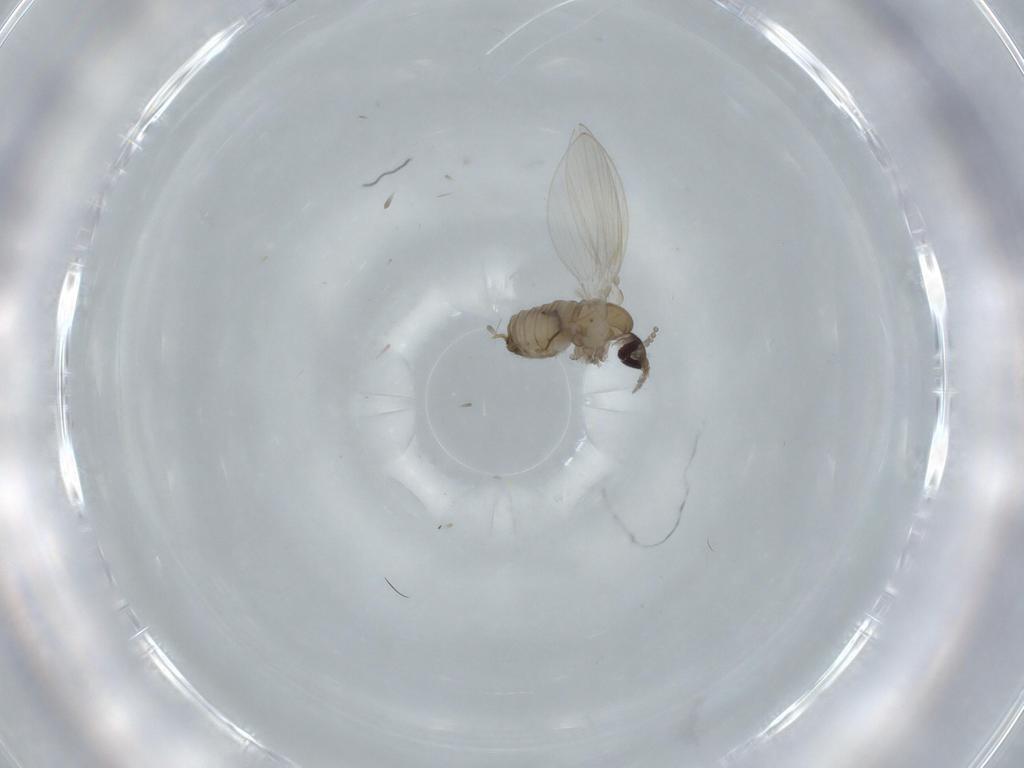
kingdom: Animalia
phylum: Arthropoda
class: Insecta
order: Diptera
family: Psychodidae
